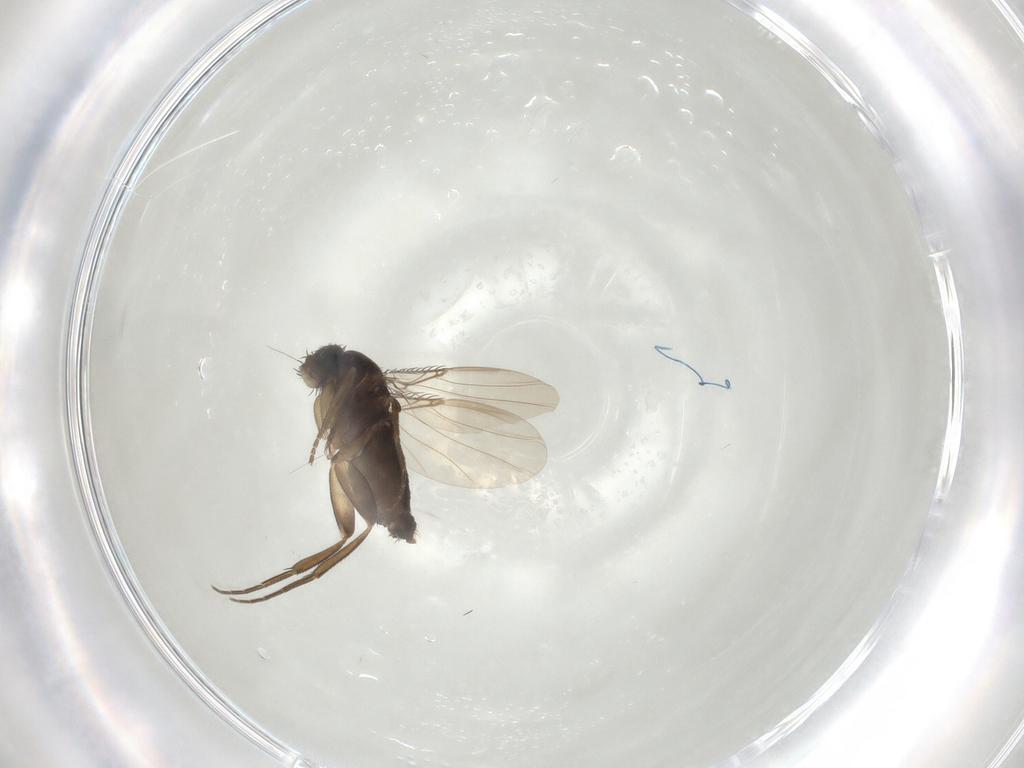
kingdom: Animalia
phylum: Arthropoda
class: Insecta
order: Diptera
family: Phoridae
